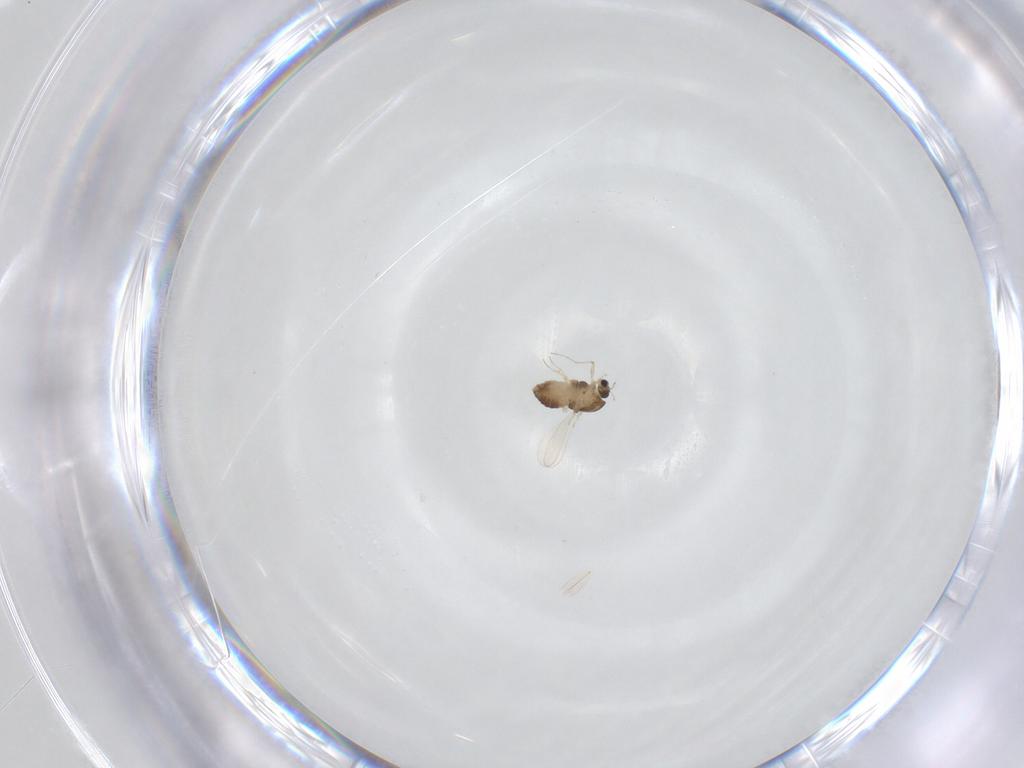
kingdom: Animalia
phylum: Arthropoda
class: Insecta
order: Diptera
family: Chironomidae
